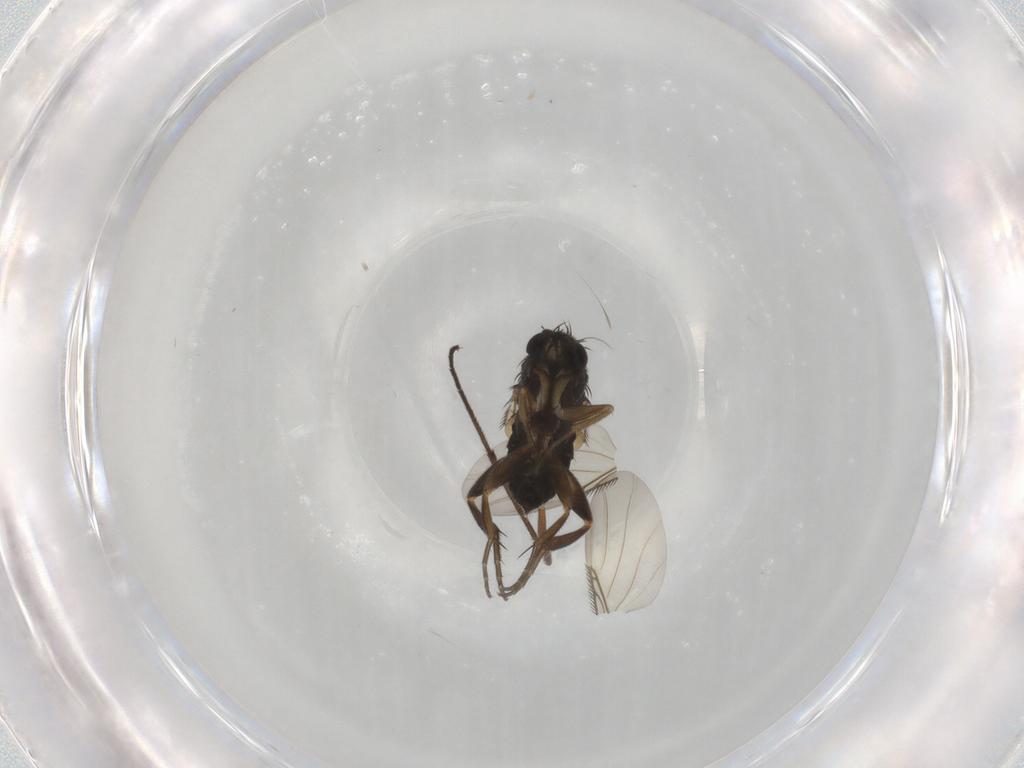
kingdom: Animalia
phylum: Arthropoda
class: Insecta
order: Diptera
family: Phoridae
